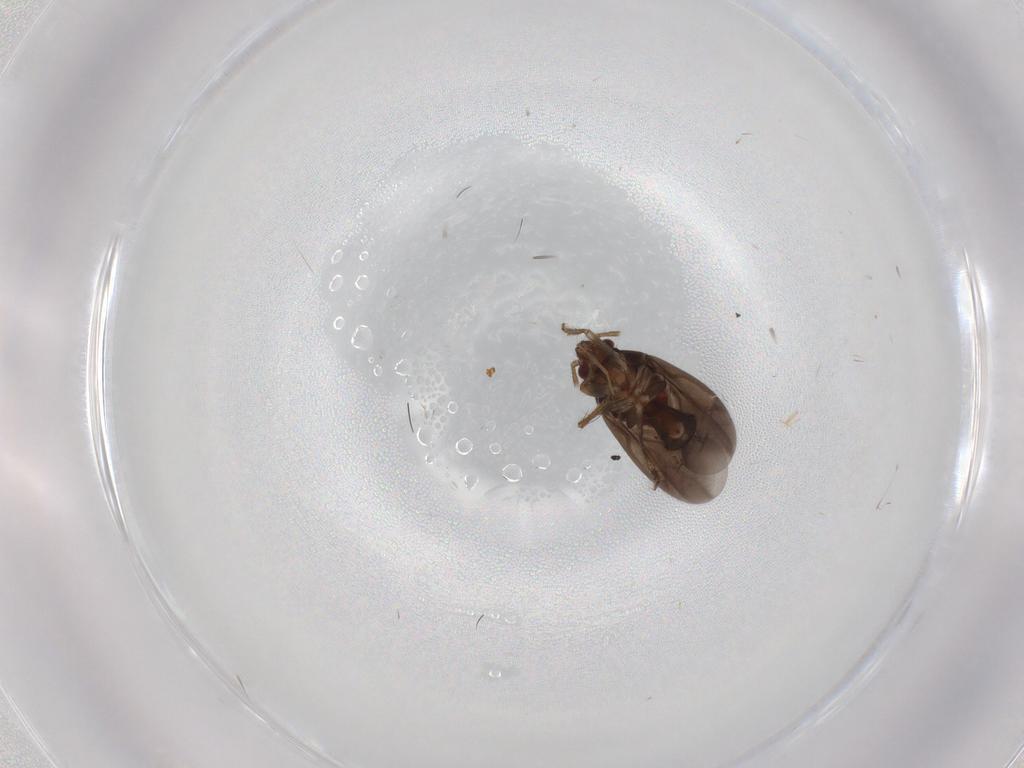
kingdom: Animalia
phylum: Arthropoda
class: Insecta
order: Hemiptera
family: Ceratocombidae
